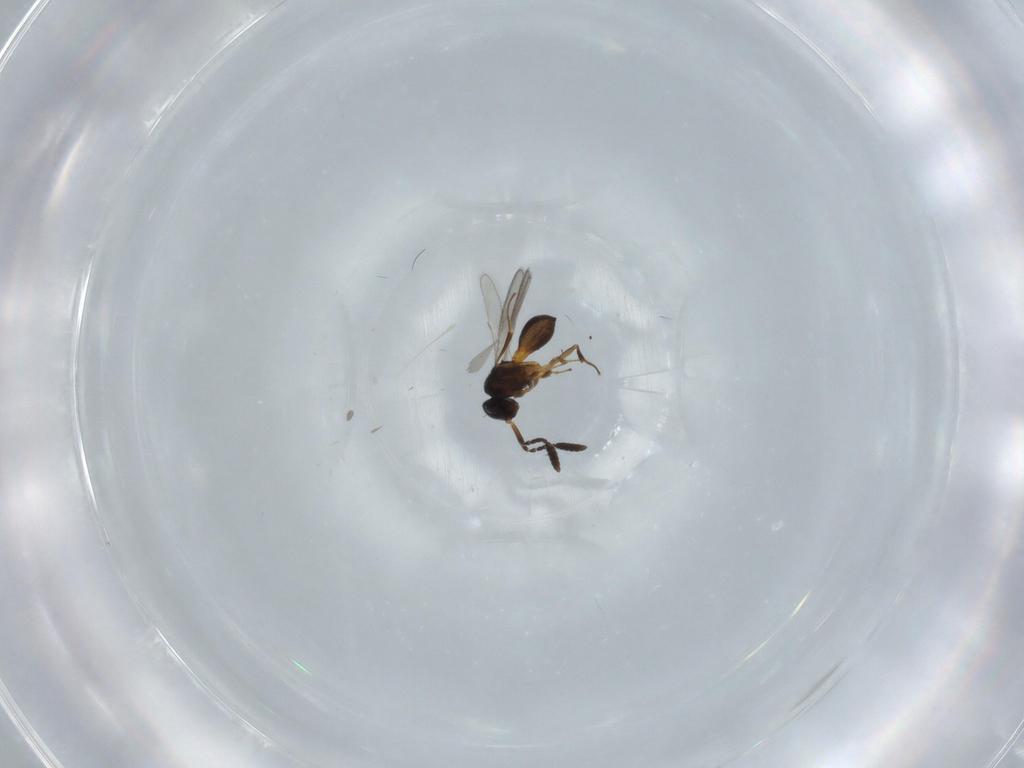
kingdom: Animalia
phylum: Arthropoda
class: Insecta
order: Hymenoptera
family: Scelionidae
